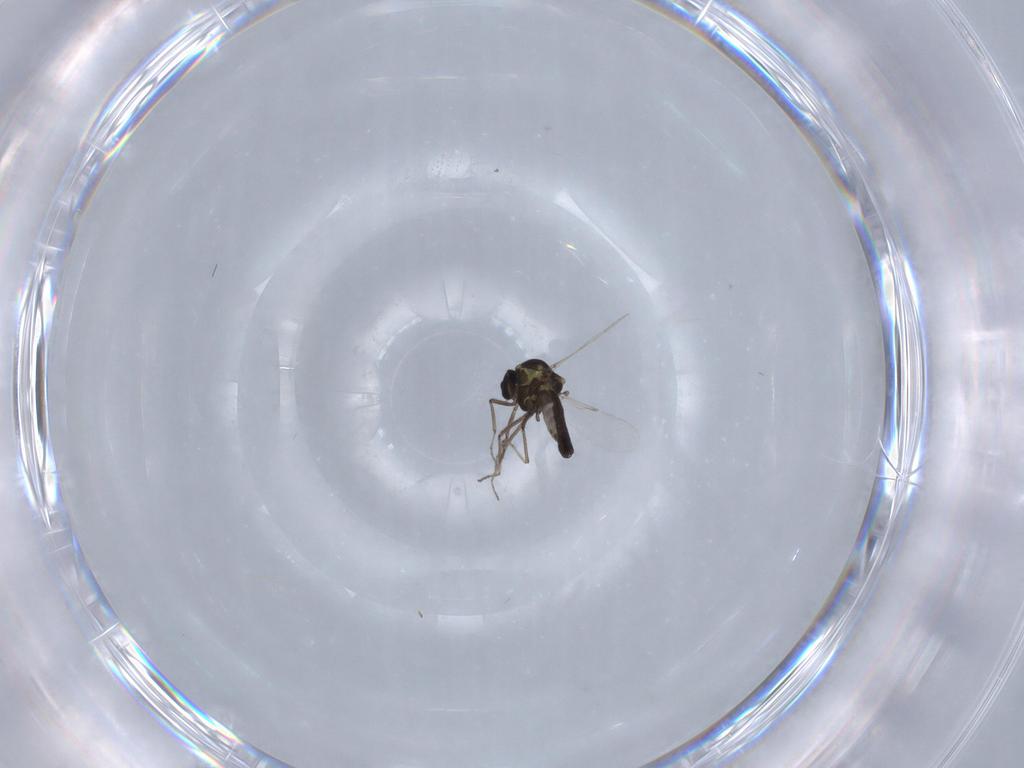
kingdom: Animalia
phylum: Arthropoda
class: Insecta
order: Diptera
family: Ceratopogonidae
